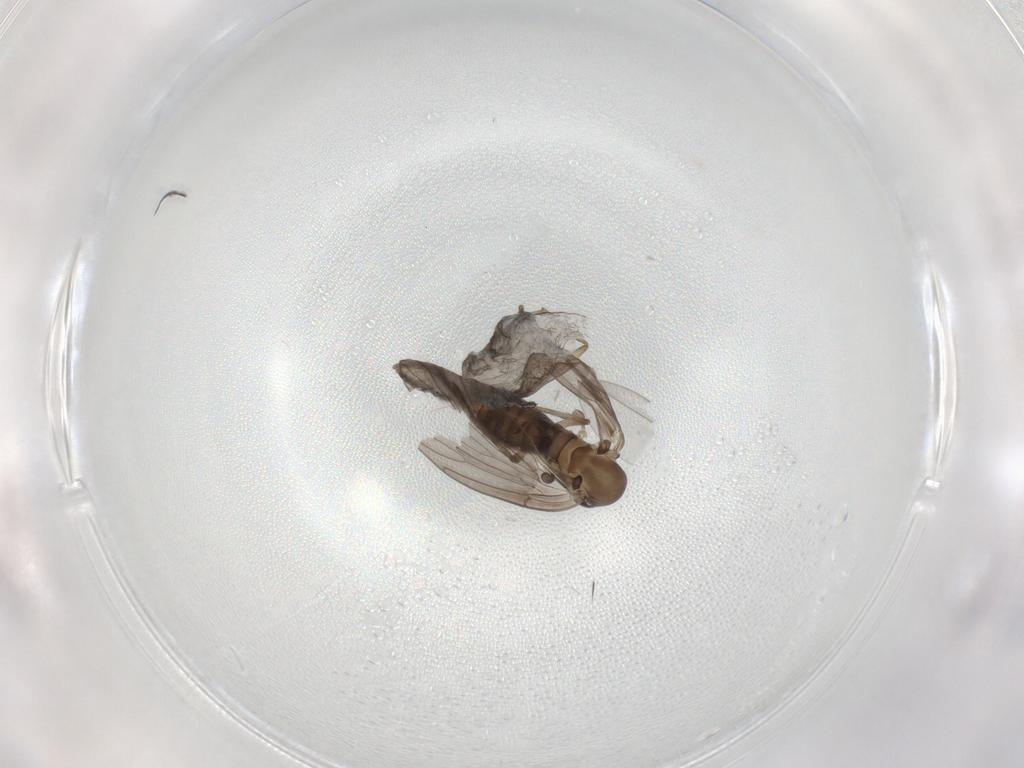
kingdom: Animalia
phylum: Arthropoda
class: Insecta
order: Diptera
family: Psychodidae
